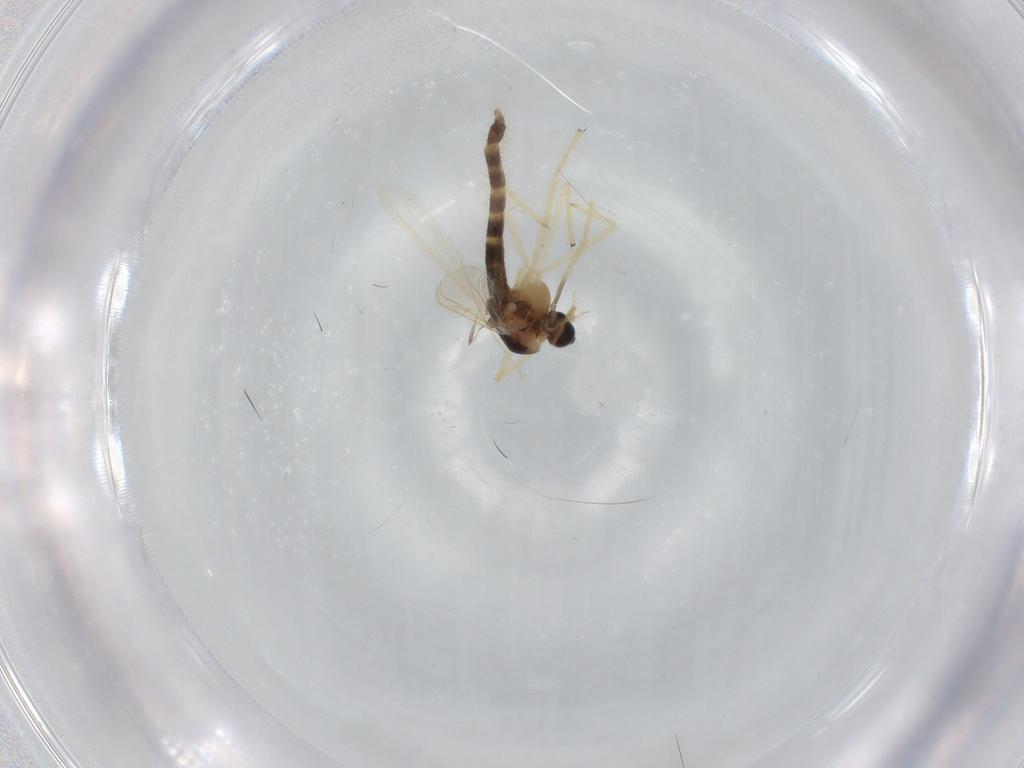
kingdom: Animalia
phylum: Arthropoda
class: Insecta
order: Diptera
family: Chironomidae
